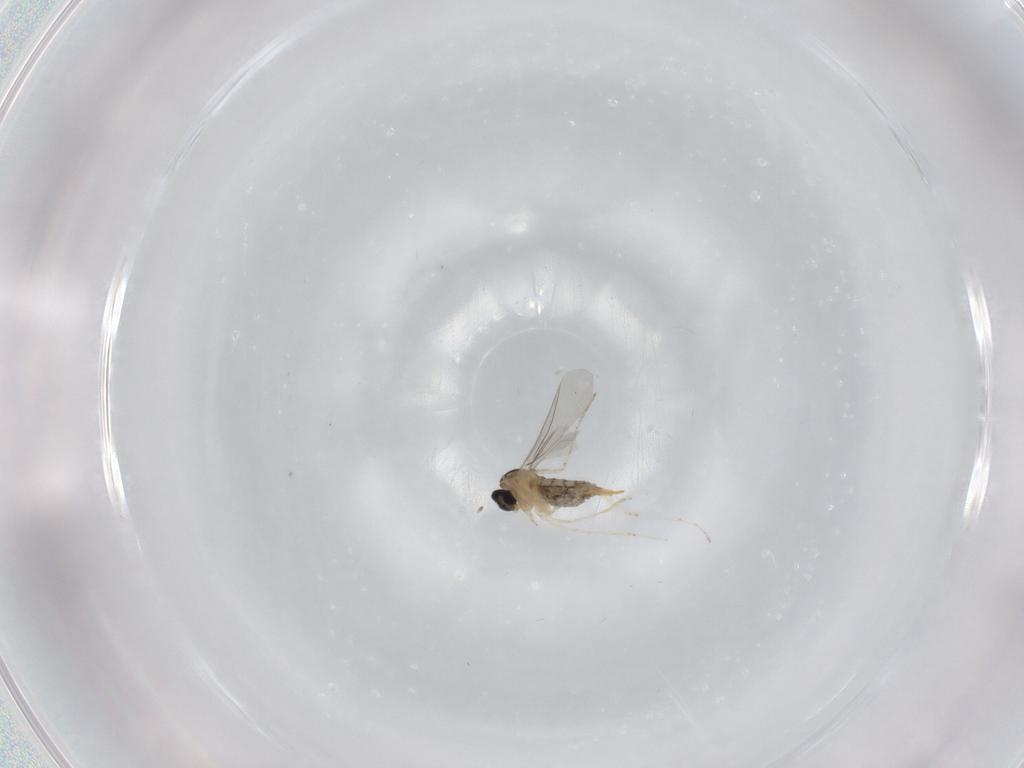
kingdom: Animalia
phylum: Arthropoda
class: Insecta
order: Diptera
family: Cecidomyiidae
